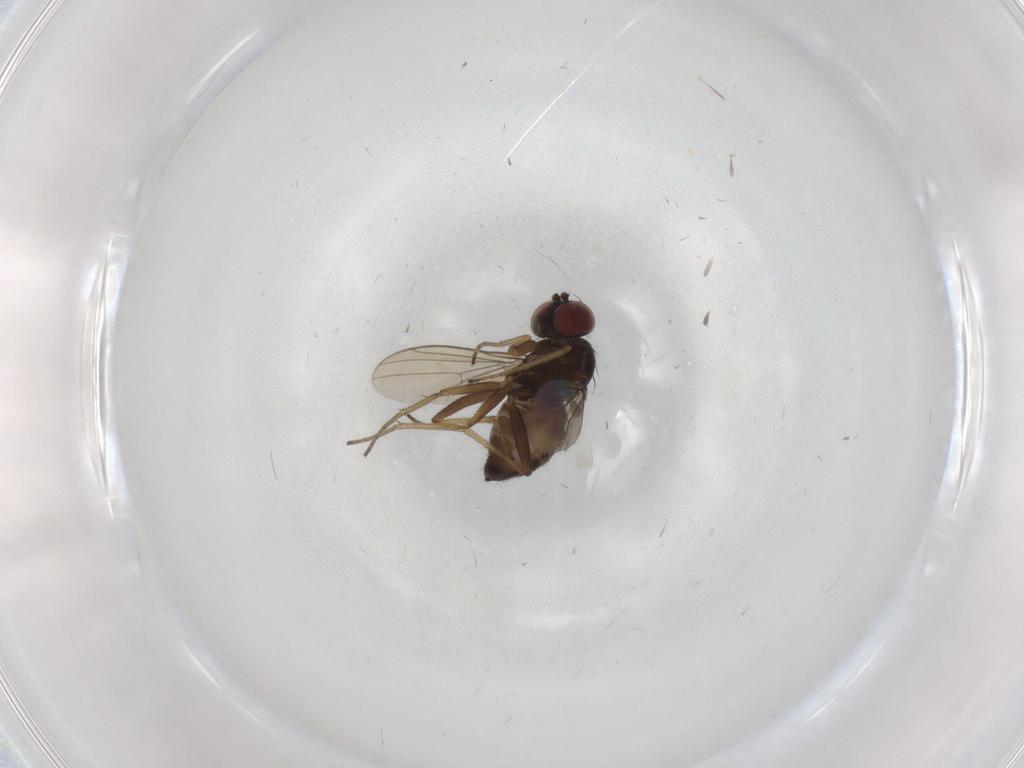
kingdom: Animalia
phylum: Arthropoda
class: Insecta
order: Diptera
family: Dolichopodidae
